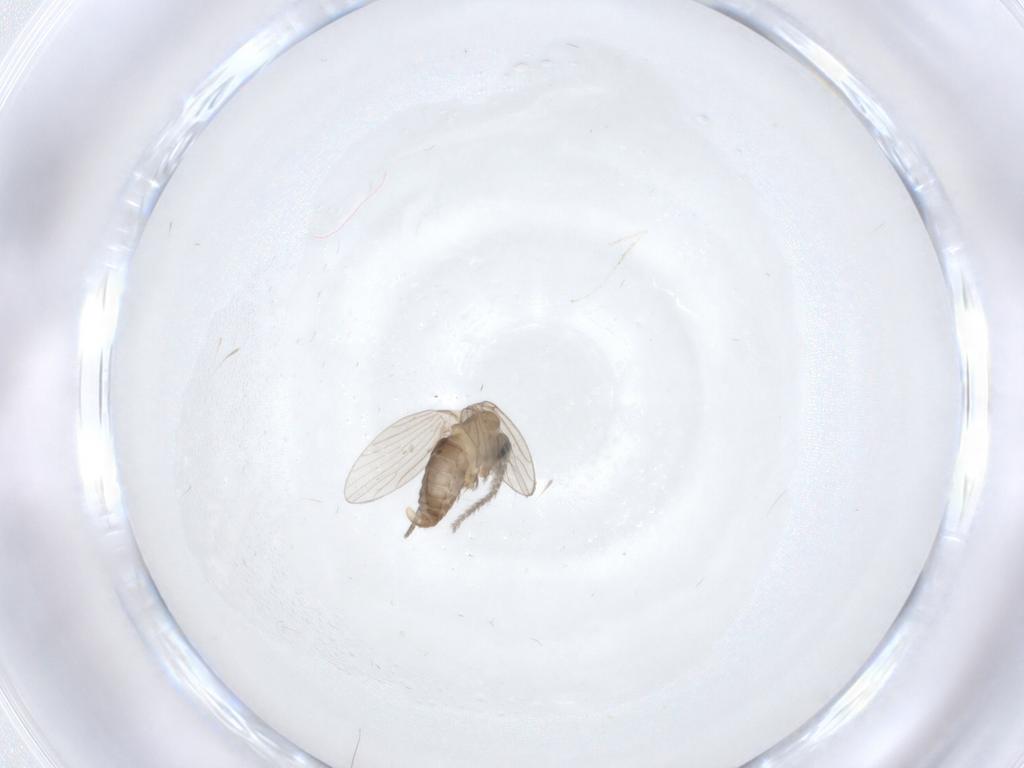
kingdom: Animalia
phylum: Arthropoda
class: Insecta
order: Diptera
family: Cecidomyiidae
